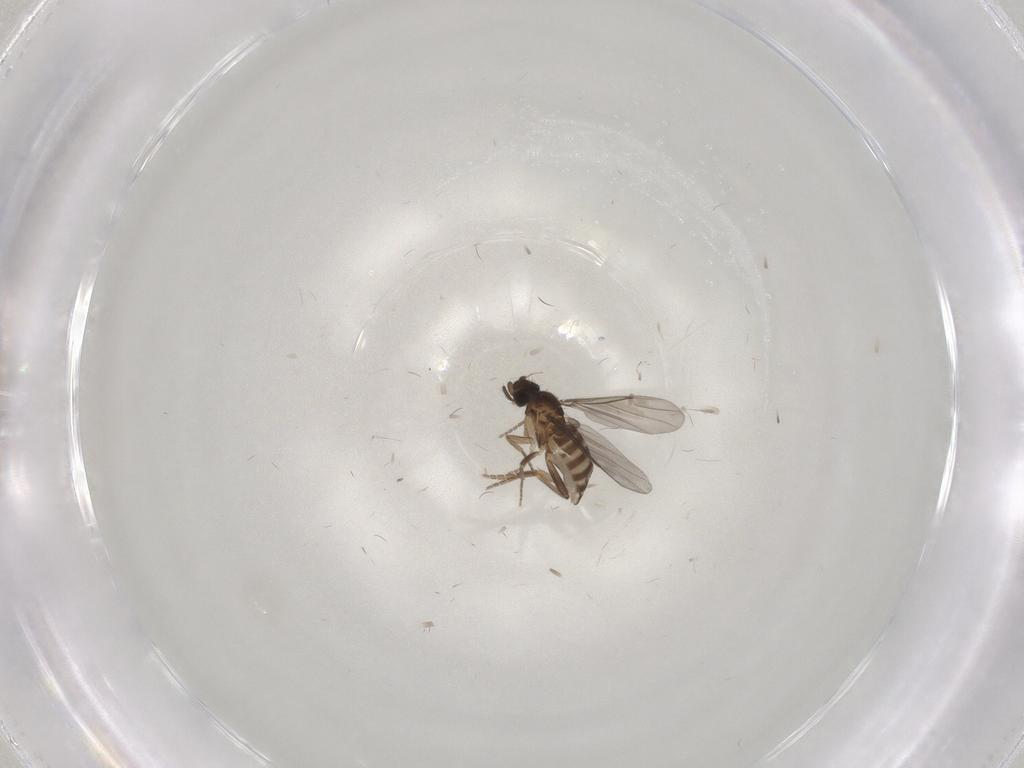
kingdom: Animalia
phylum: Arthropoda
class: Insecta
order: Diptera
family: Phoridae
